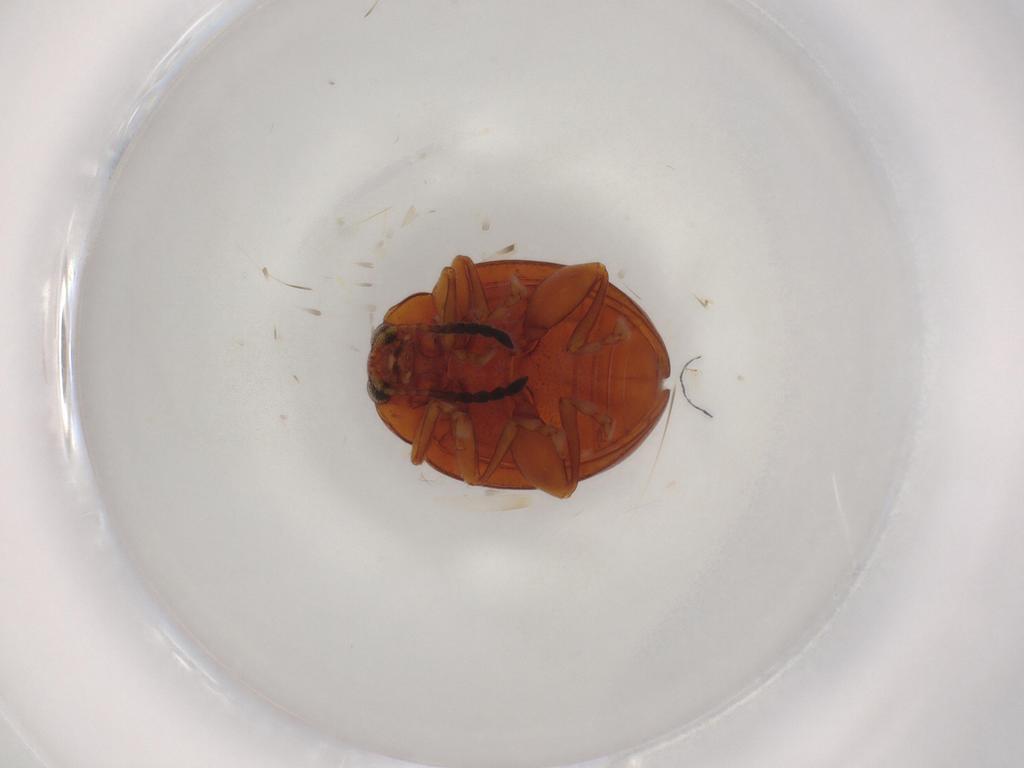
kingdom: Animalia
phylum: Arthropoda
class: Insecta
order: Coleoptera
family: Chrysomelidae
